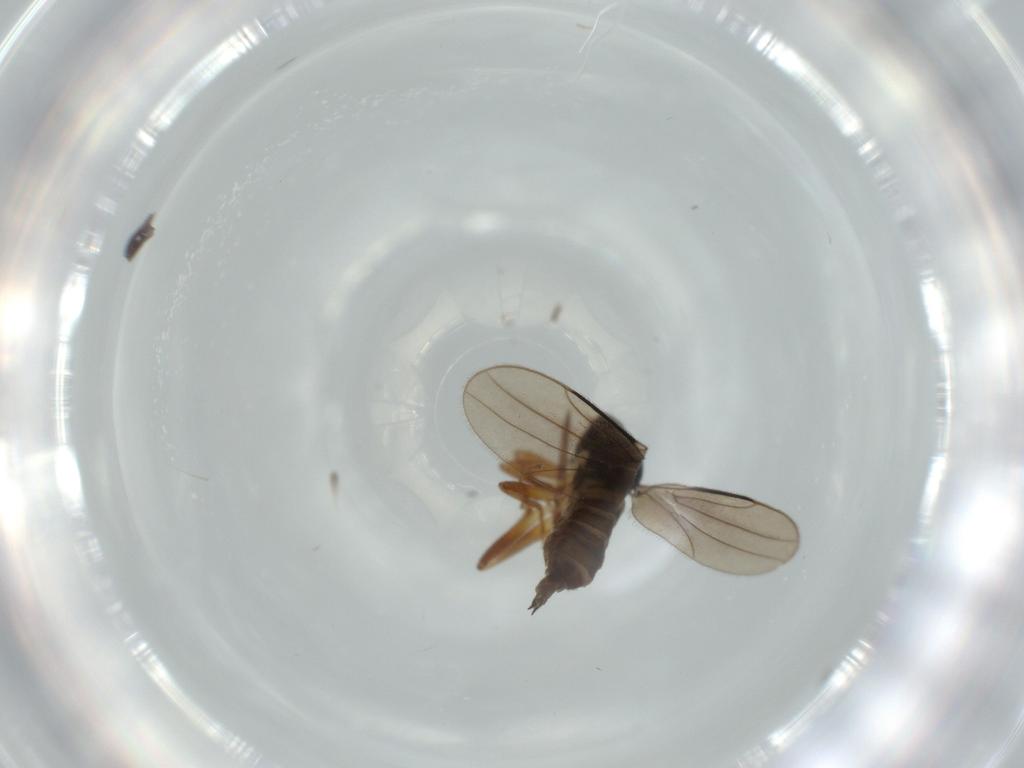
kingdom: Animalia
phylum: Arthropoda
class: Insecta
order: Diptera
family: Hybotidae
